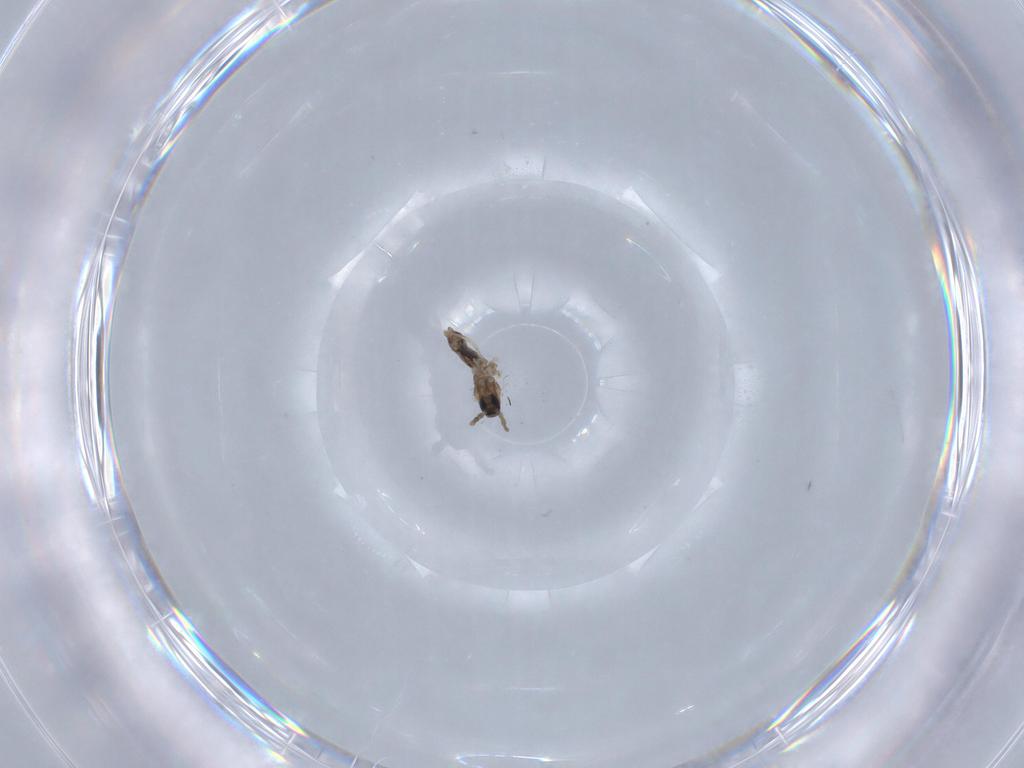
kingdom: Animalia
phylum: Arthropoda
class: Insecta
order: Diptera
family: Cecidomyiidae
